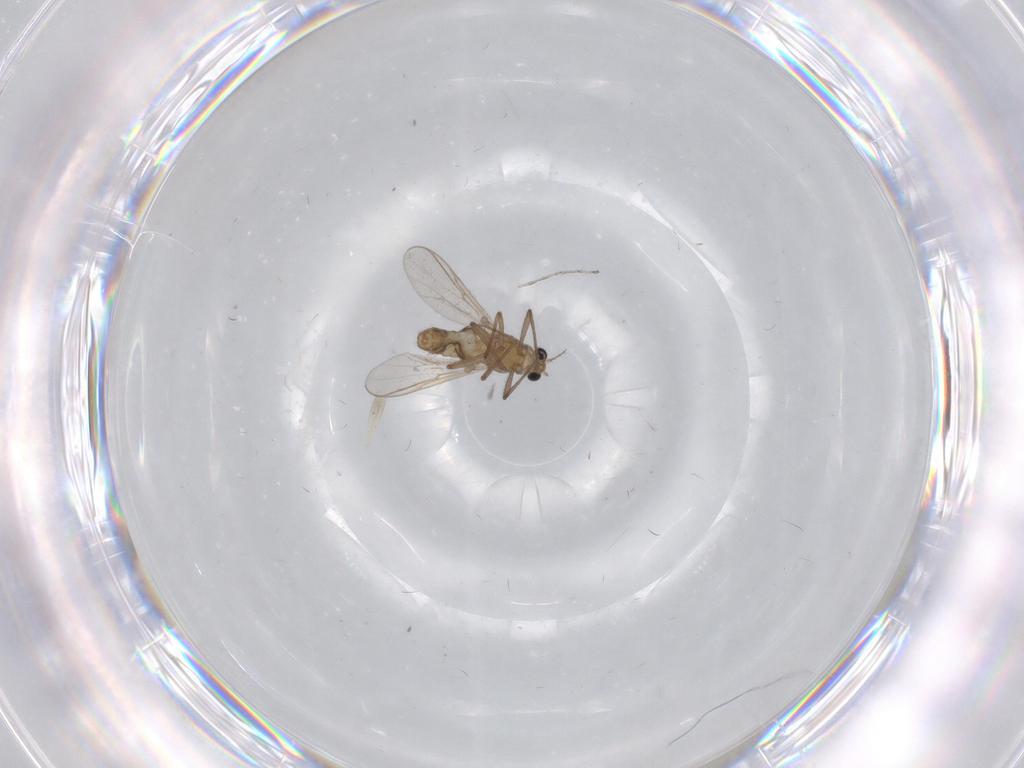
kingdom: Animalia
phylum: Arthropoda
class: Insecta
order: Diptera
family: Chironomidae
